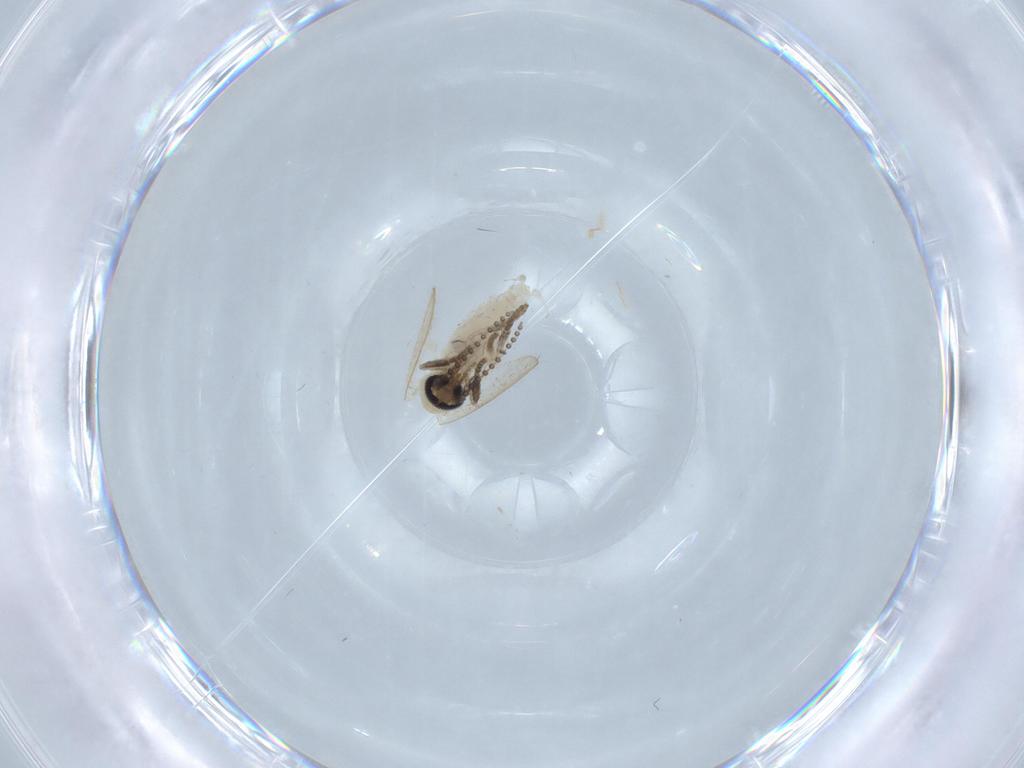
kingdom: Animalia
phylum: Arthropoda
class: Insecta
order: Diptera
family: Psychodidae
